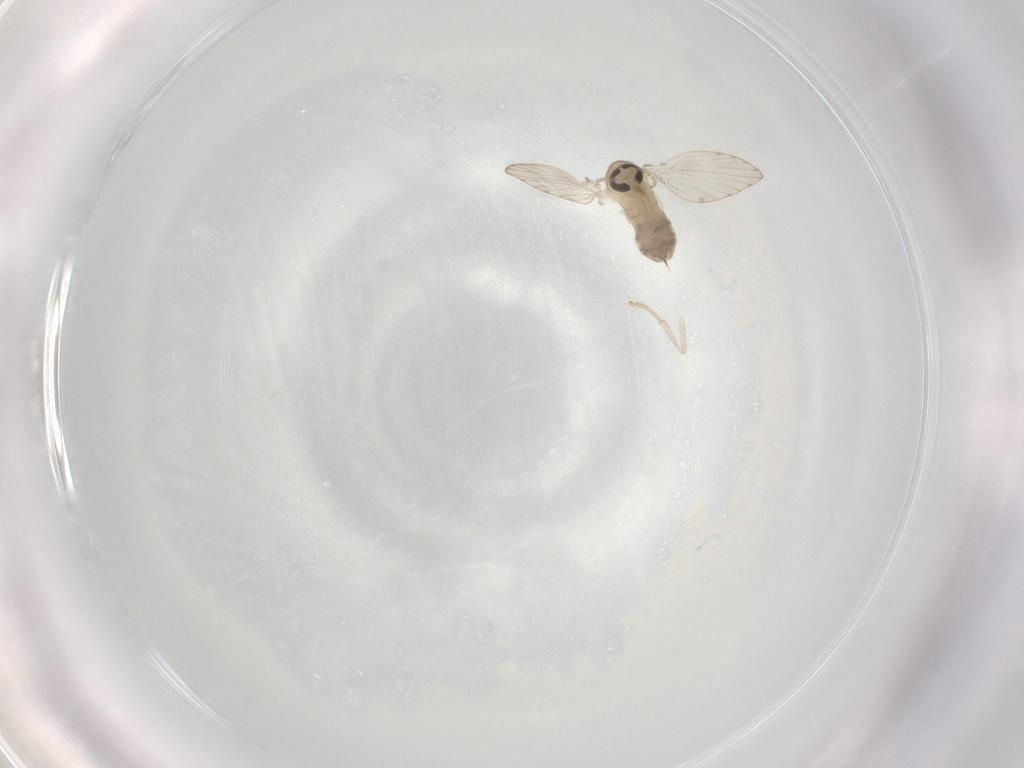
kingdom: Animalia
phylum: Arthropoda
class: Insecta
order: Diptera
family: Psychodidae
